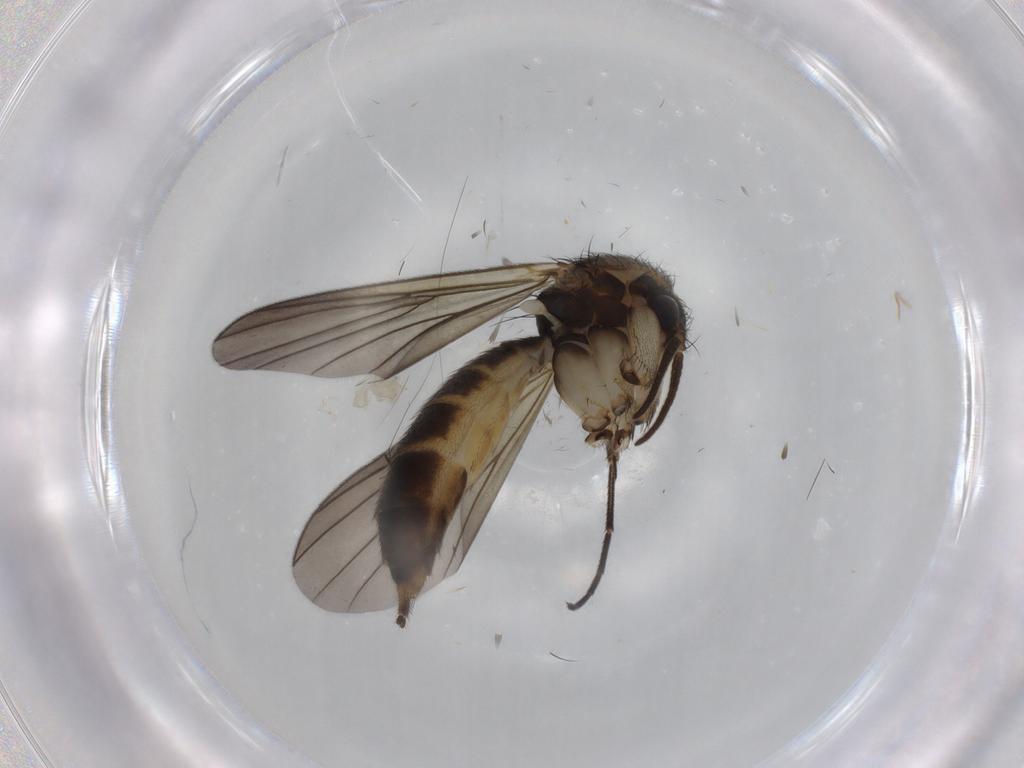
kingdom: Animalia
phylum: Arthropoda
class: Insecta
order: Diptera
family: Mycetophilidae
